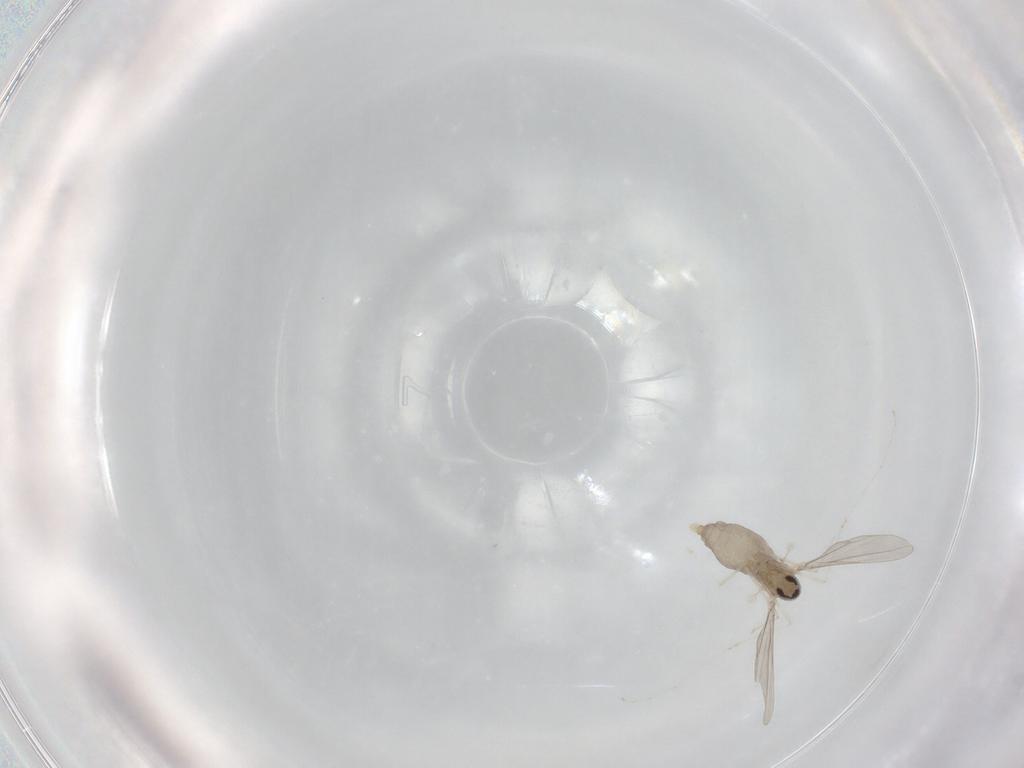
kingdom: Animalia
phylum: Arthropoda
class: Insecta
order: Diptera
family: Cecidomyiidae
